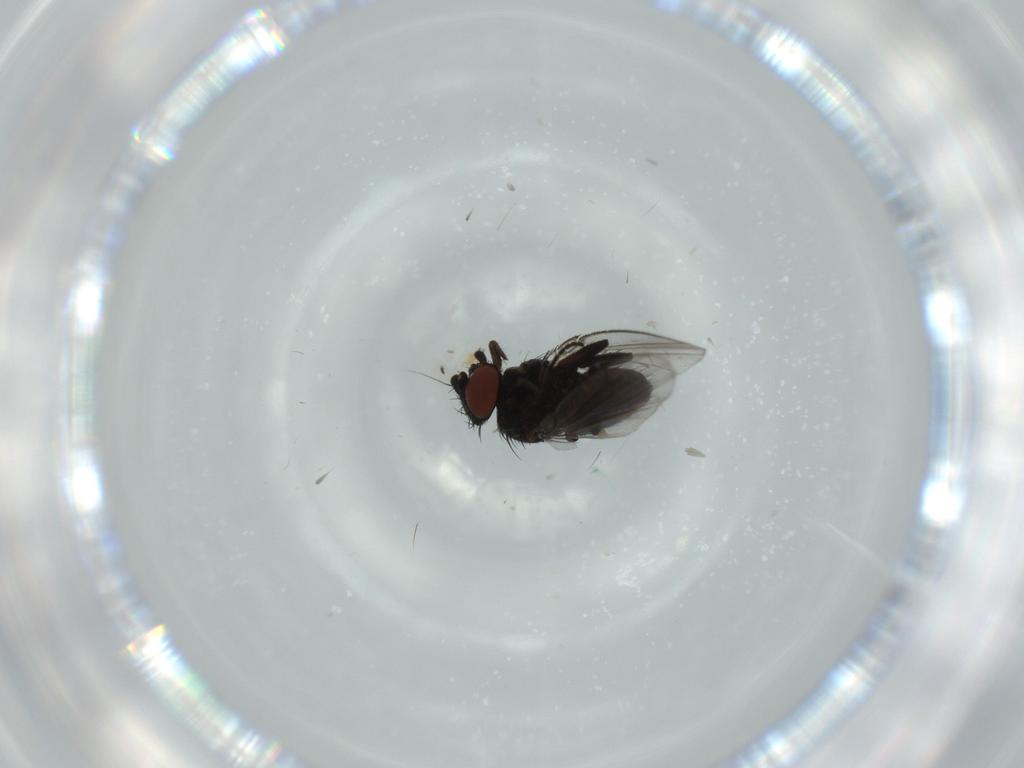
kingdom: Animalia
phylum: Arthropoda
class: Insecta
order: Diptera
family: Milichiidae
